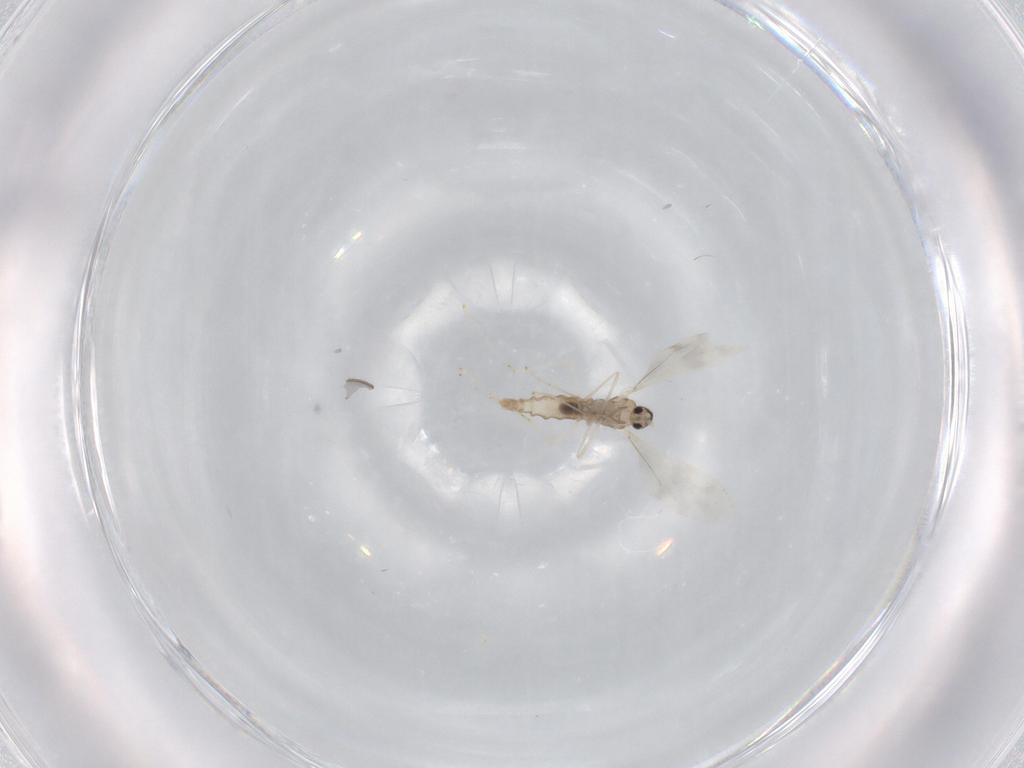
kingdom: Animalia
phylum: Arthropoda
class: Insecta
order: Diptera
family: Cecidomyiidae
